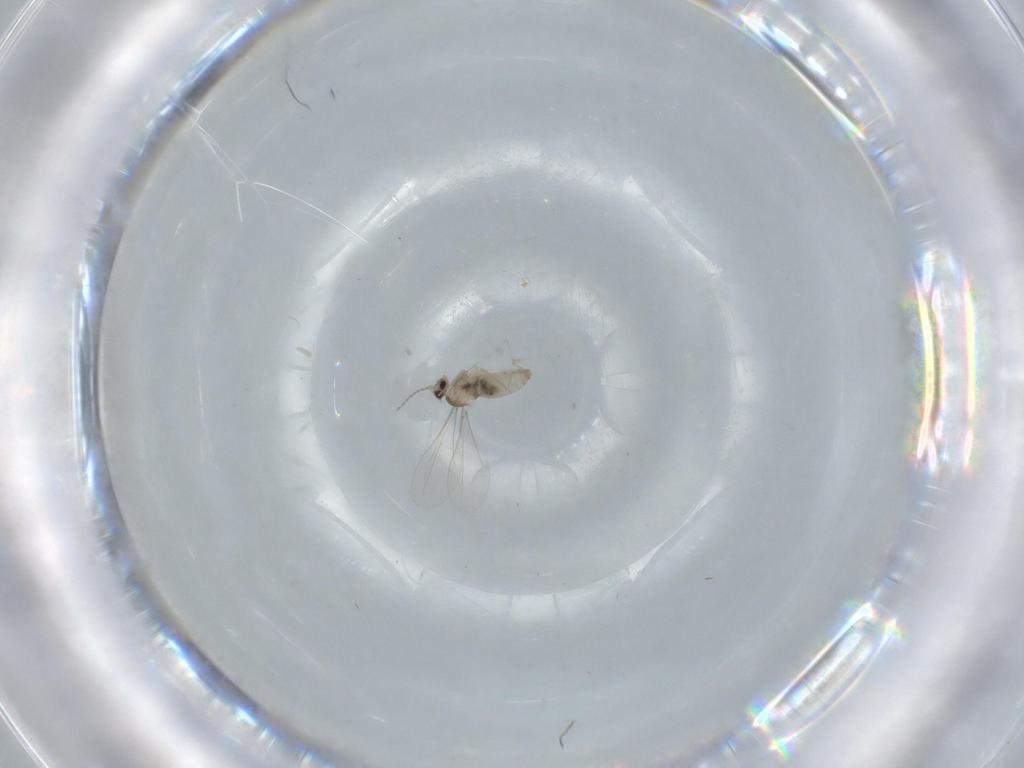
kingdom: Animalia
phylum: Arthropoda
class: Insecta
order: Diptera
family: Cecidomyiidae
